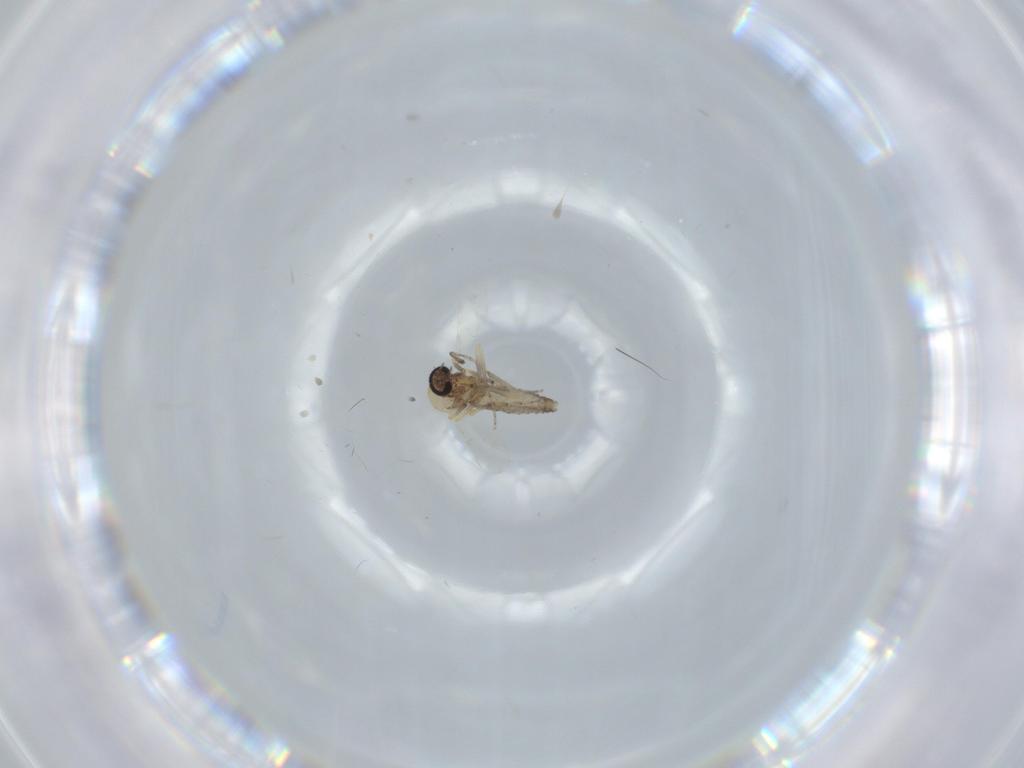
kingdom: Animalia
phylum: Arthropoda
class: Insecta
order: Diptera
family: Ceratopogonidae
